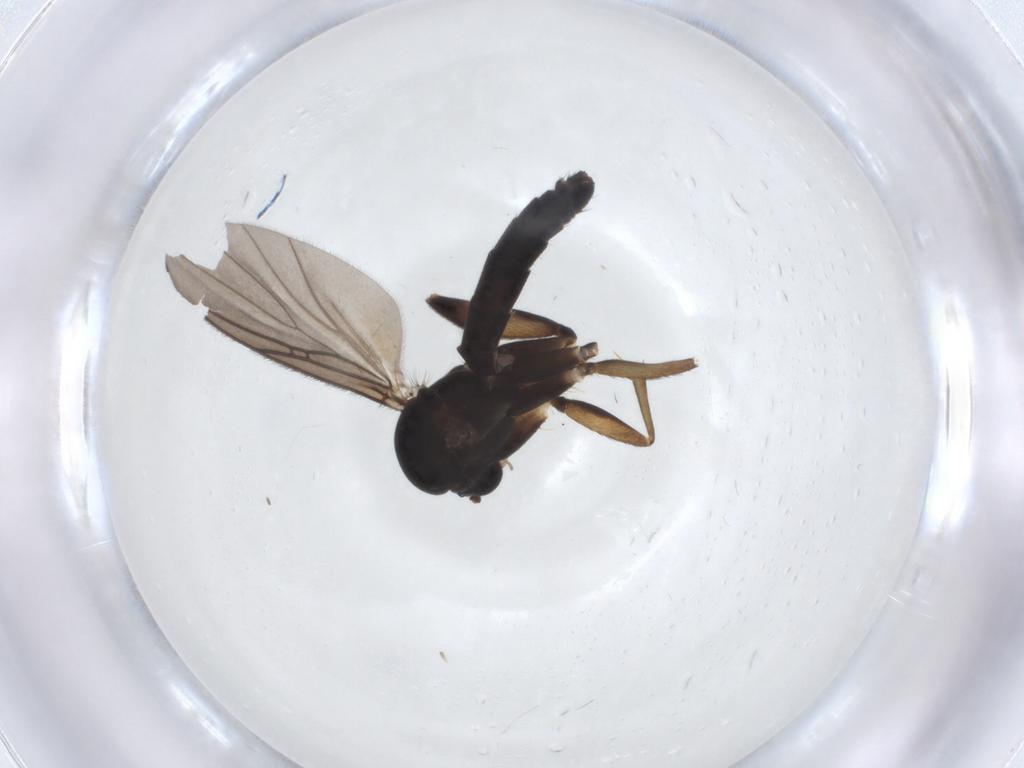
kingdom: Animalia
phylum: Arthropoda
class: Insecta
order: Diptera
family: Psychodidae
